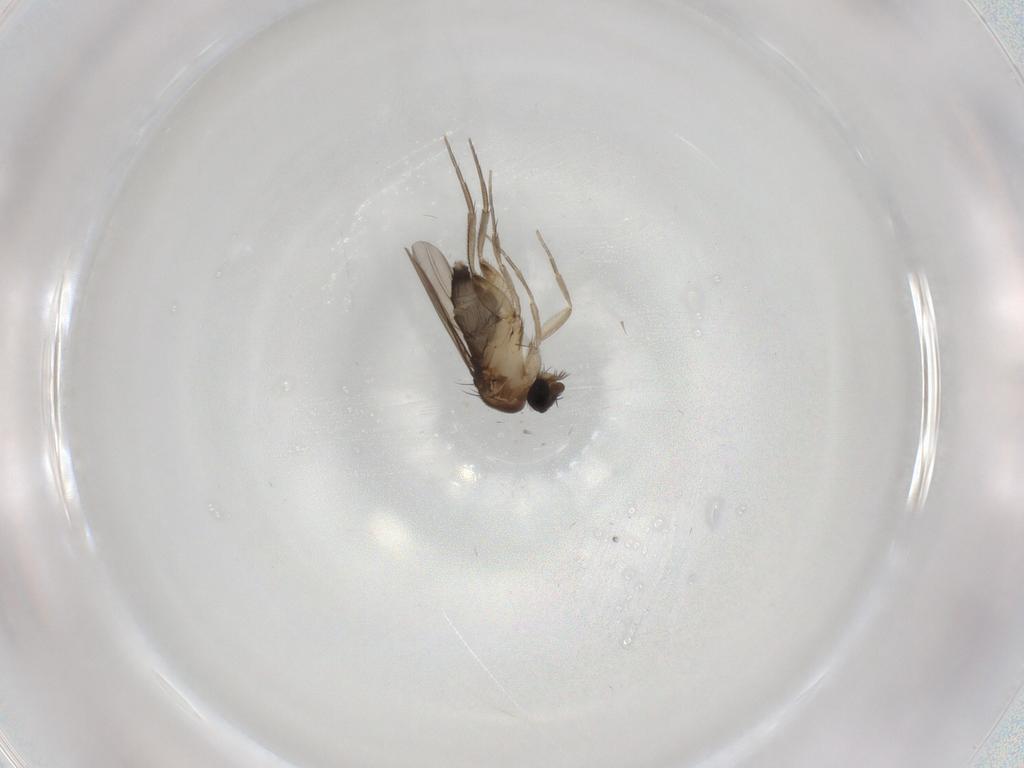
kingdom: Animalia
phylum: Arthropoda
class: Insecta
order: Diptera
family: Phoridae
